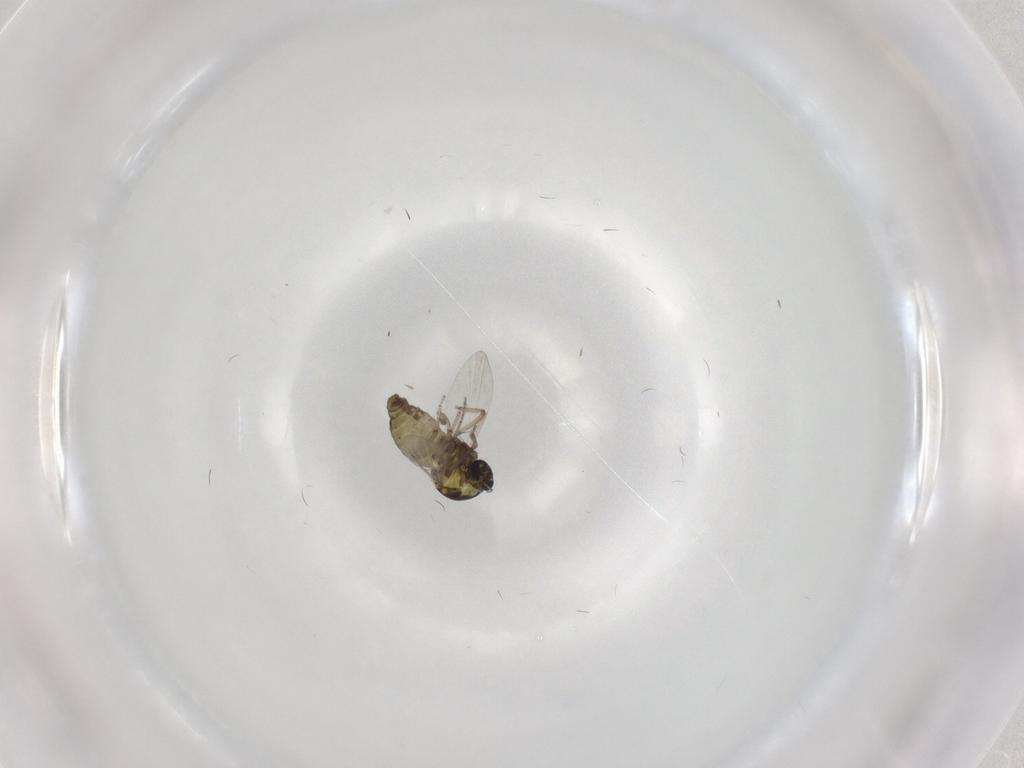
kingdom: Animalia
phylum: Arthropoda
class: Insecta
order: Diptera
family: Ceratopogonidae
